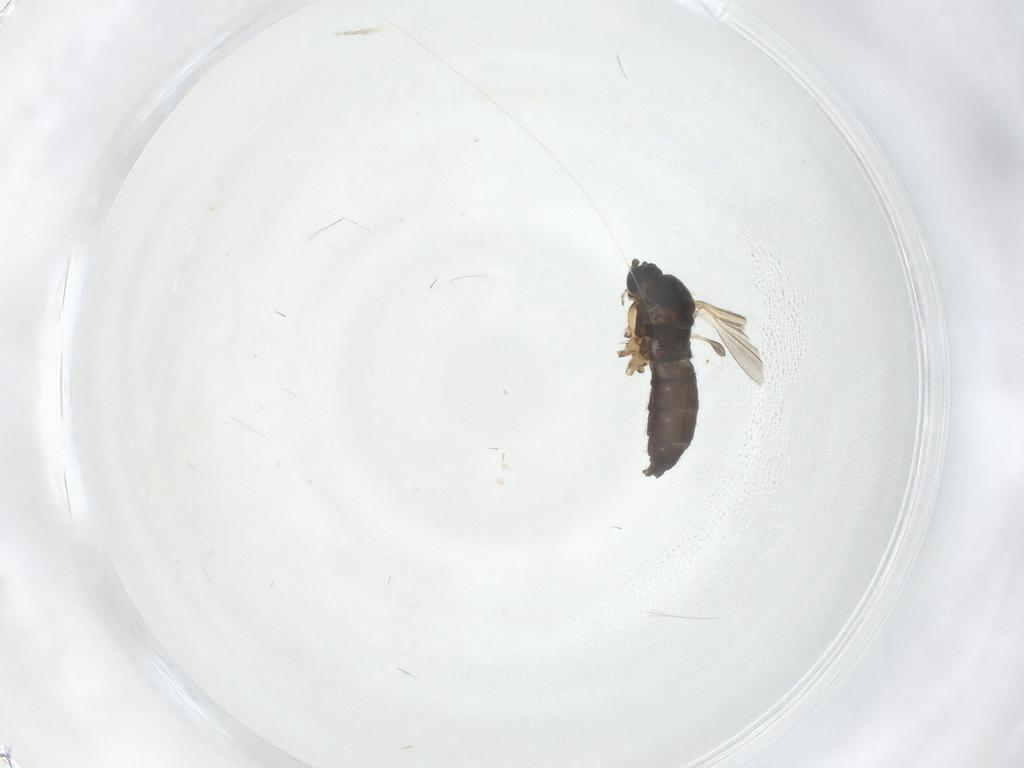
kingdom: Animalia
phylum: Arthropoda
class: Insecta
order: Diptera
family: Sciaridae
